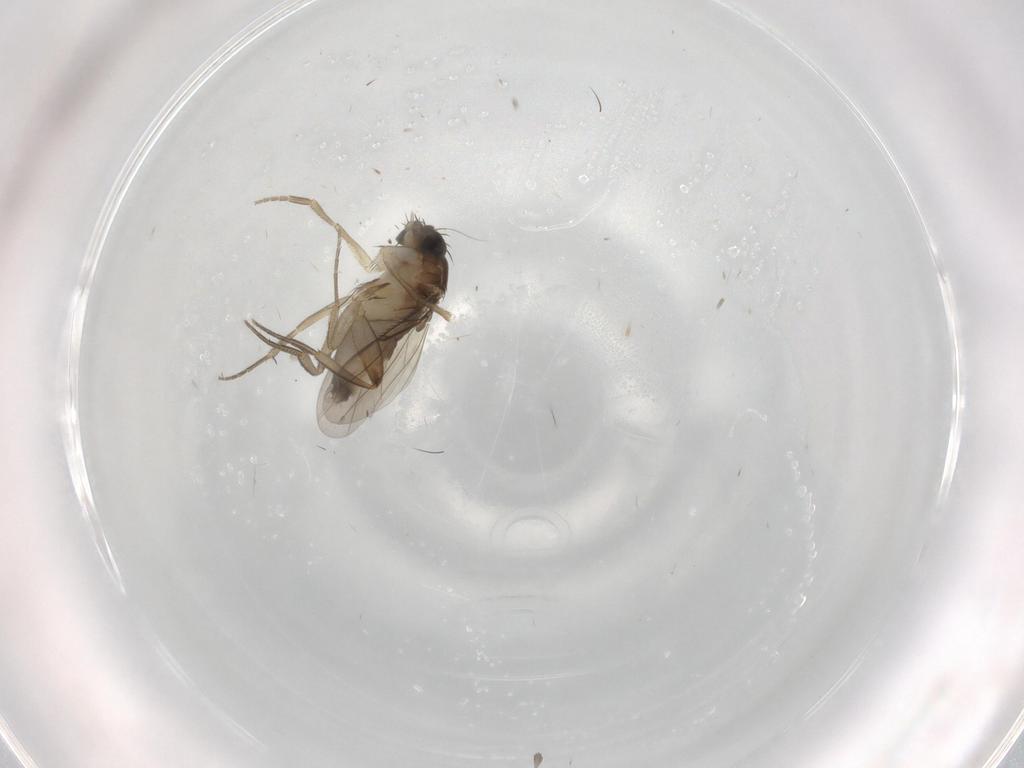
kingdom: Animalia
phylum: Arthropoda
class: Insecta
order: Diptera
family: Phoridae
